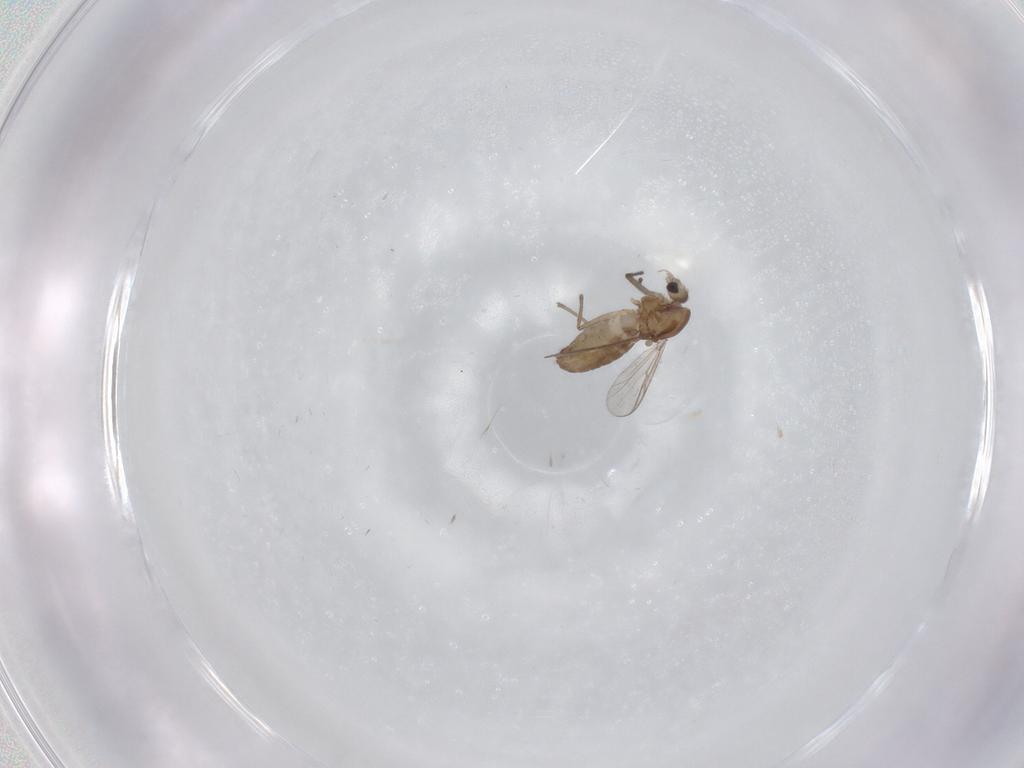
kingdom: Animalia
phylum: Arthropoda
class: Insecta
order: Diptera
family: Chironomidae
